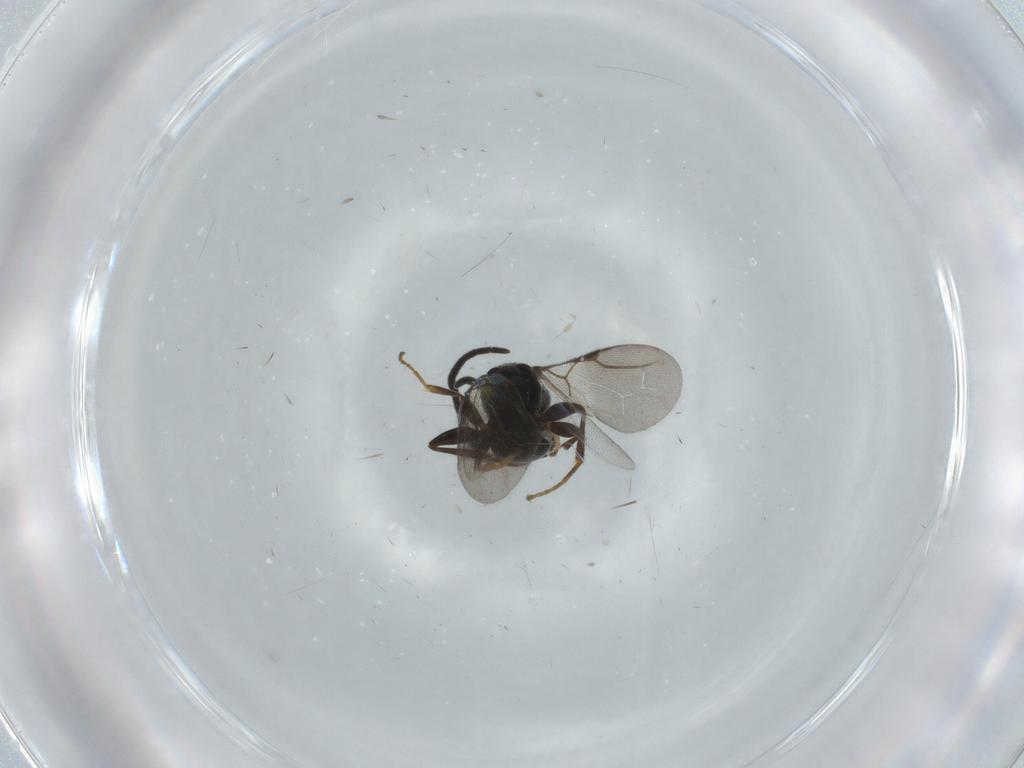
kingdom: Animalia
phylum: Arthropoda
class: Insecta
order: Hymenoptera
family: Bethylidae
